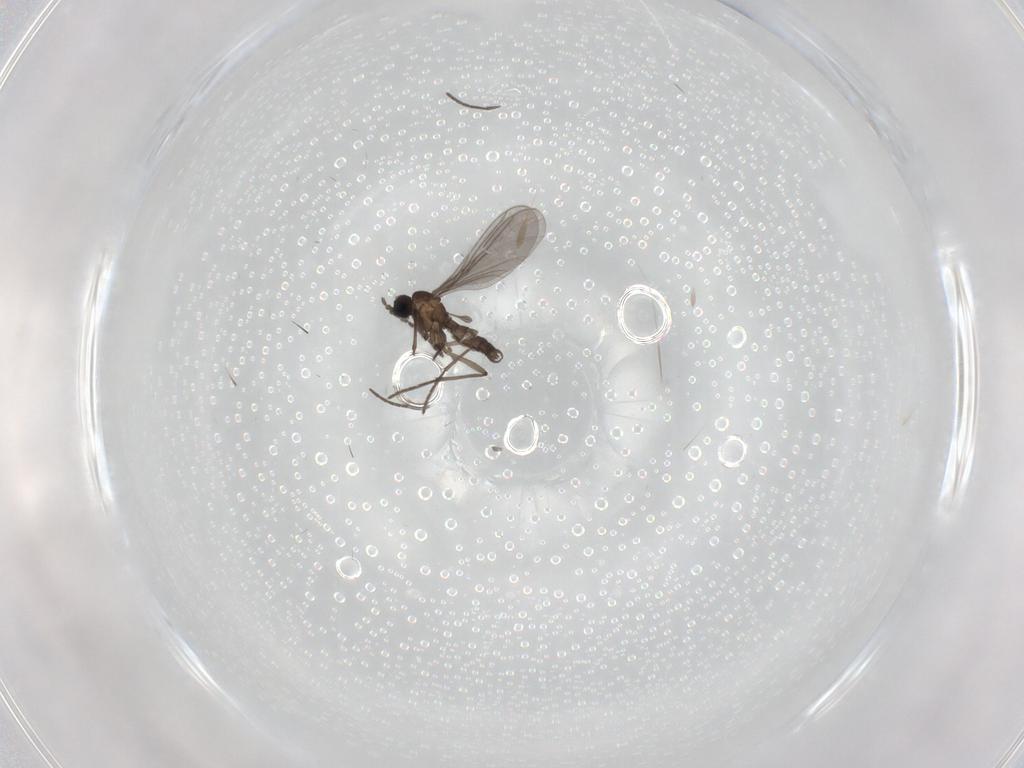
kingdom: Animalia
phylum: Arthropoda
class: Insecta
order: Diptera
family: Sciaridae
